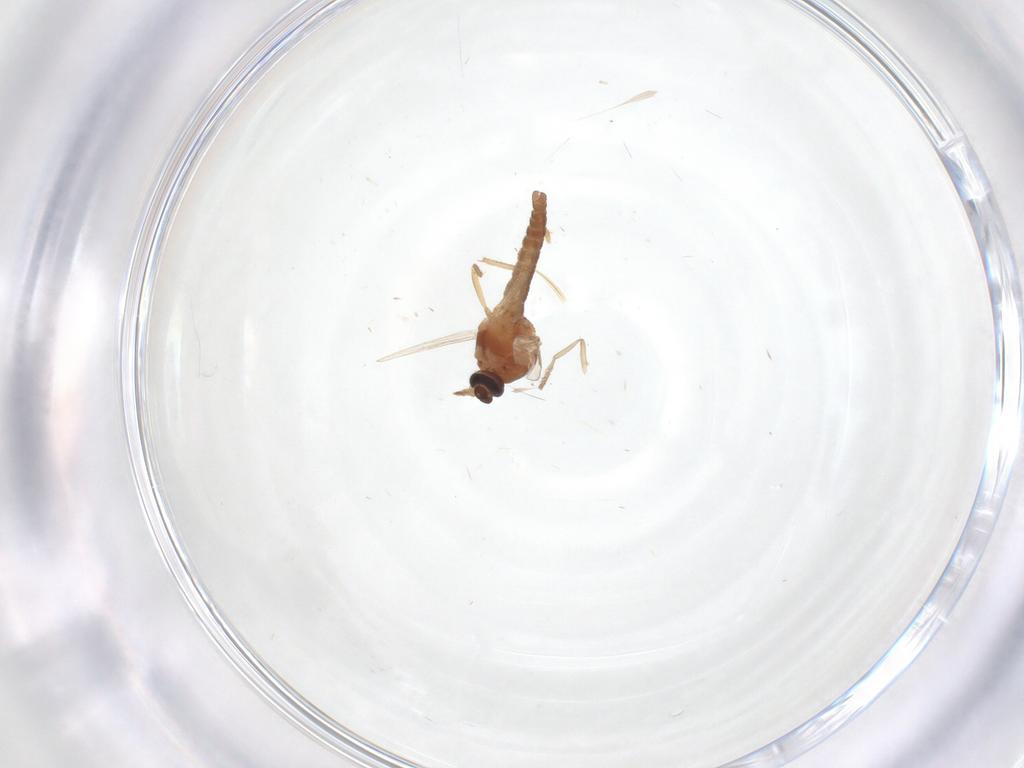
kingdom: Animalia
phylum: Arthropoda
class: Insecta
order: Diptera
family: Ceratopogonidae
